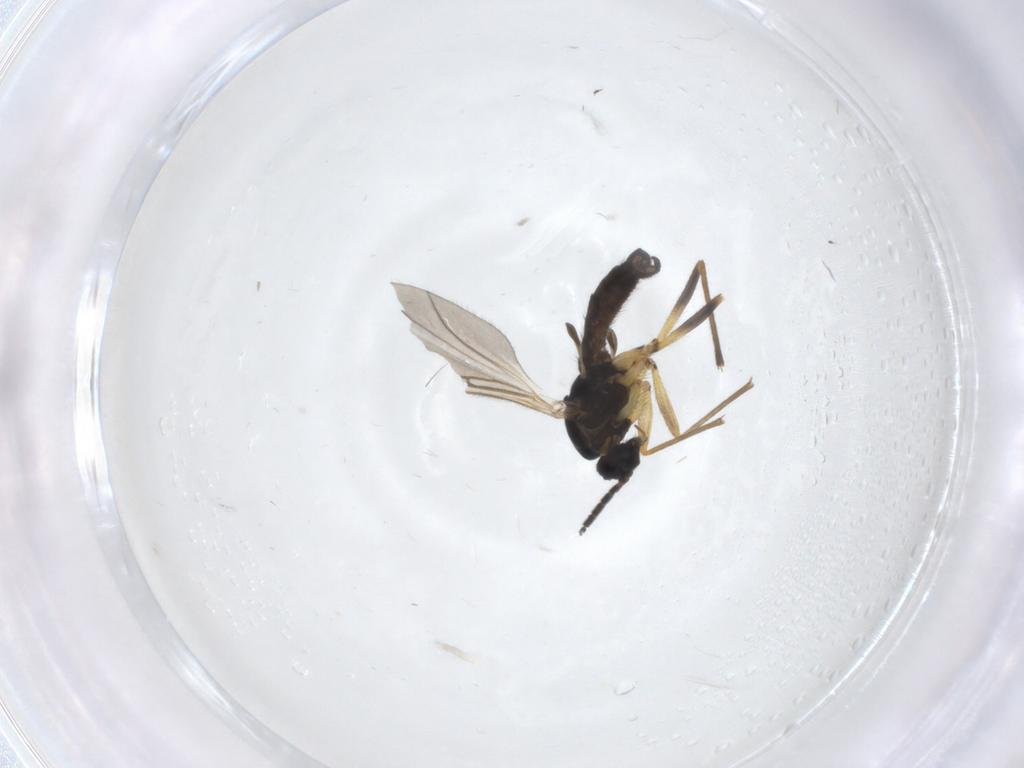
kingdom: Animalia
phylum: Arthropoda
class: Insecta
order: Diptera
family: Sciaridae
